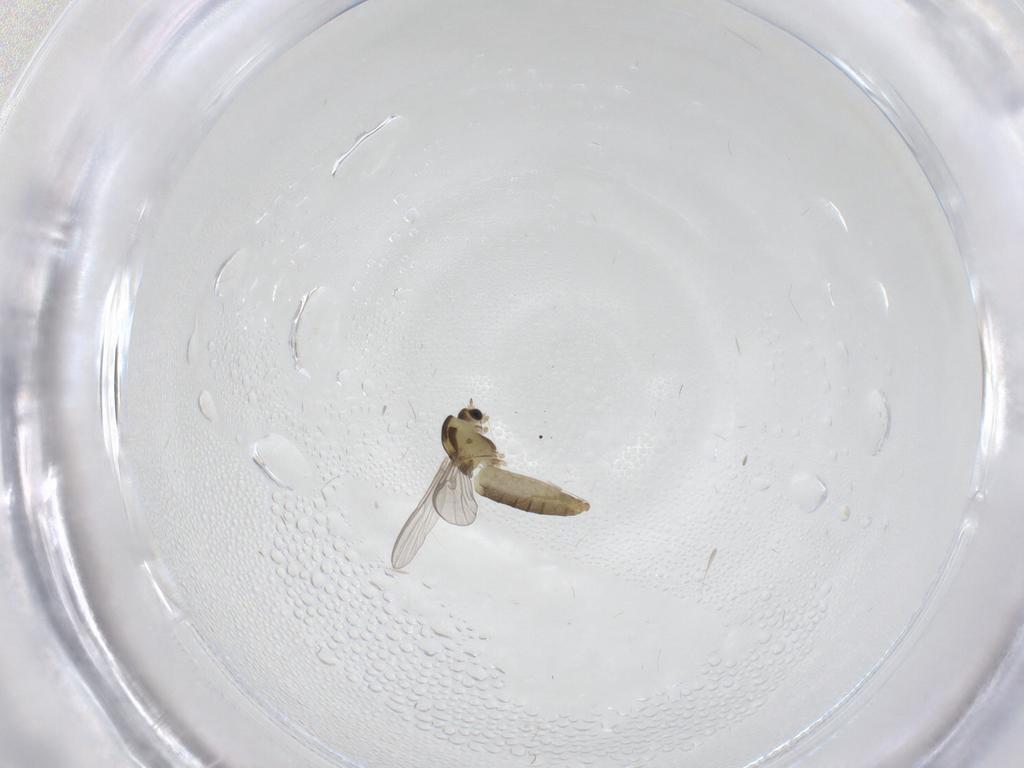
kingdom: Animalia
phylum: Arthropoda
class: Insecta
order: Diptera
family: Chironomidae
